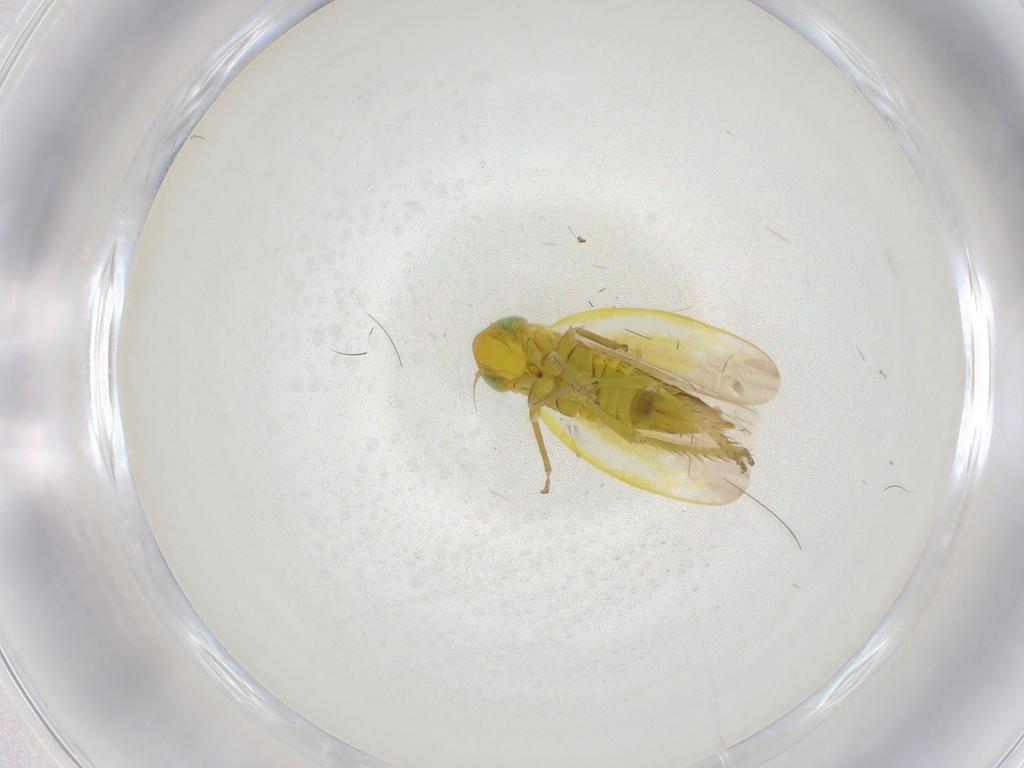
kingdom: Animalia
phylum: Arthropoda
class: Insecta
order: Hemiptera
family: Cicadellidae
